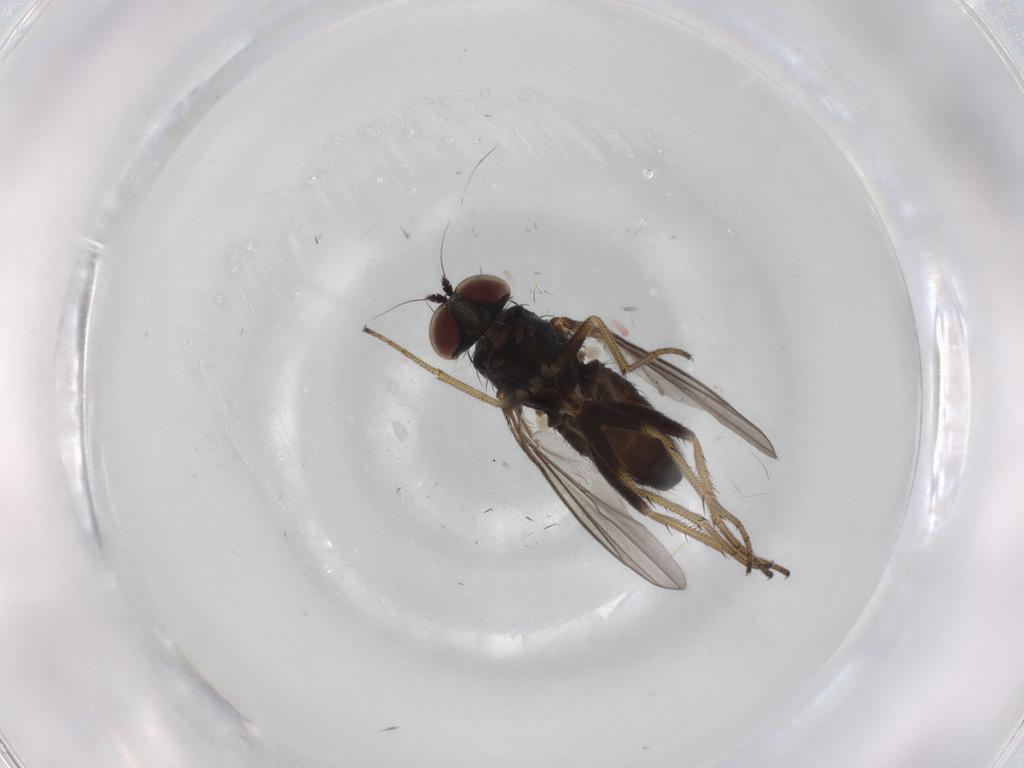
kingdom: Animalia
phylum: Arthropoda
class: Insecta
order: Diptera
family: Dolichopodidae
